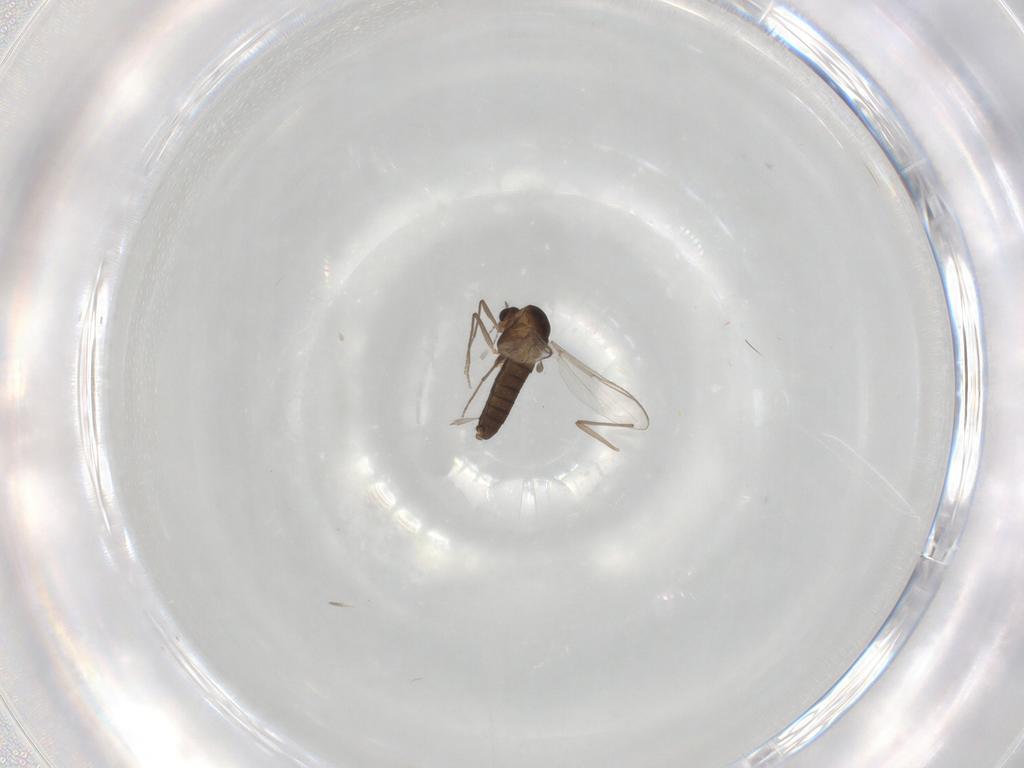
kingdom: Animalia
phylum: Arthropoda
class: Insecta
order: Diptera
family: Chironomidae
